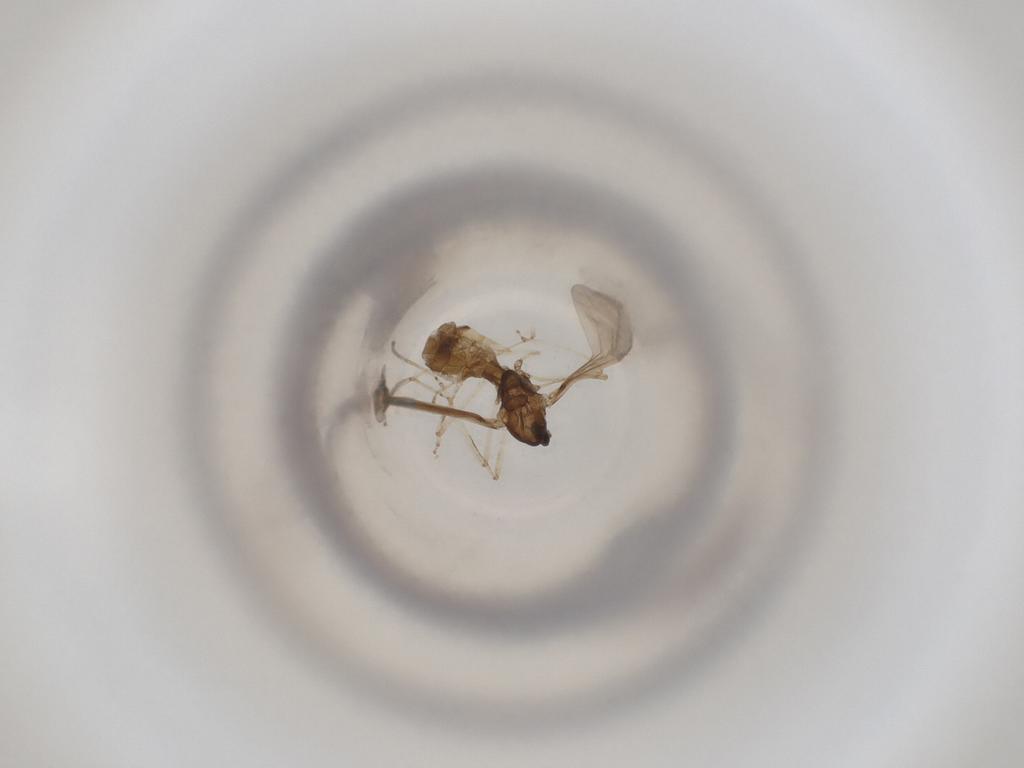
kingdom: Animalia
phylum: Arthropoda
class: Insecta
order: Diptera
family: Cecidomyiidae
